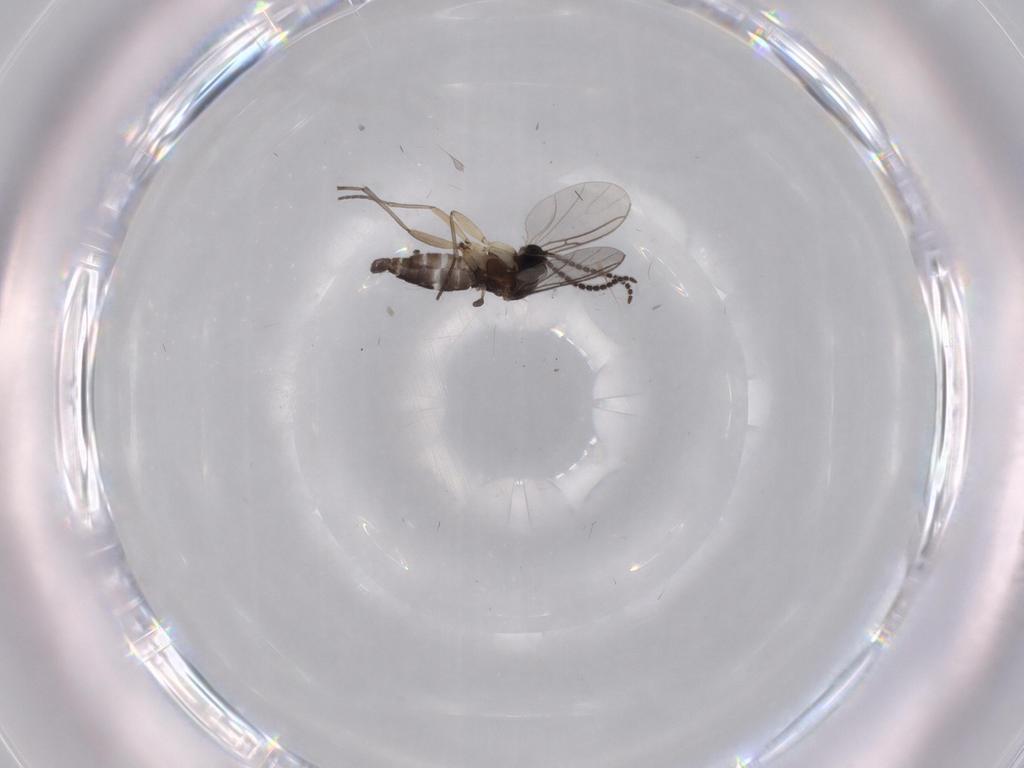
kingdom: Animalia
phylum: Arthropoda
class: Insecta
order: Diptera
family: Sciaridae
